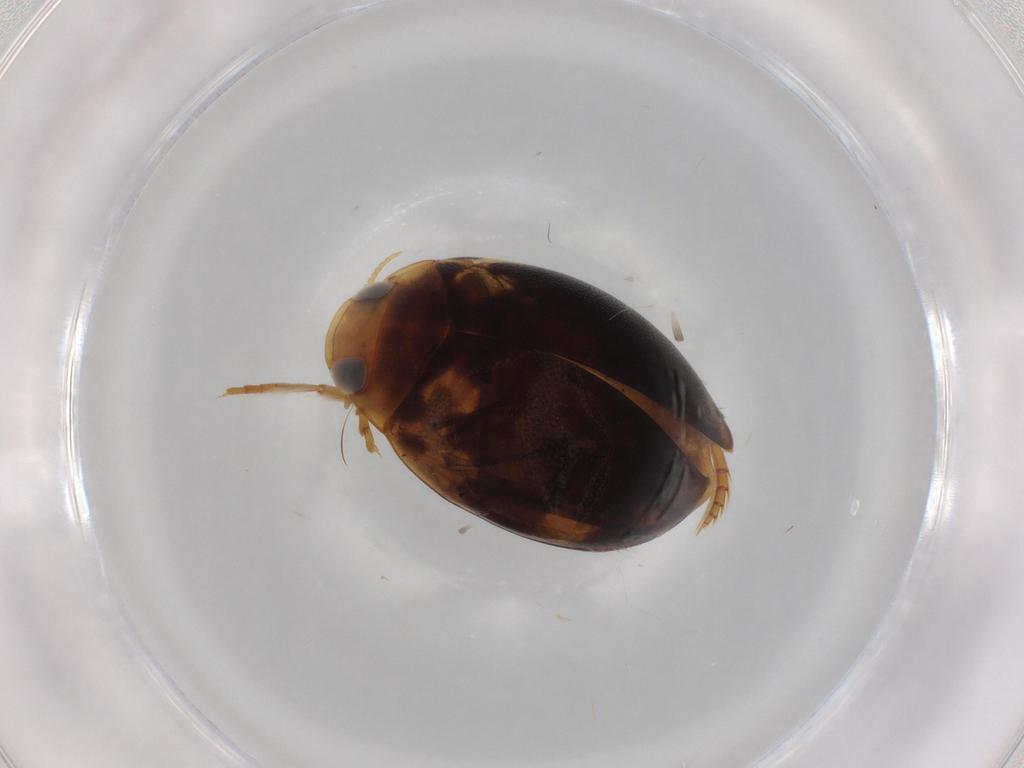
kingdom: Animalia
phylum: Arthropoda
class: Insecta
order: Coleoptera
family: Dytiscidae
